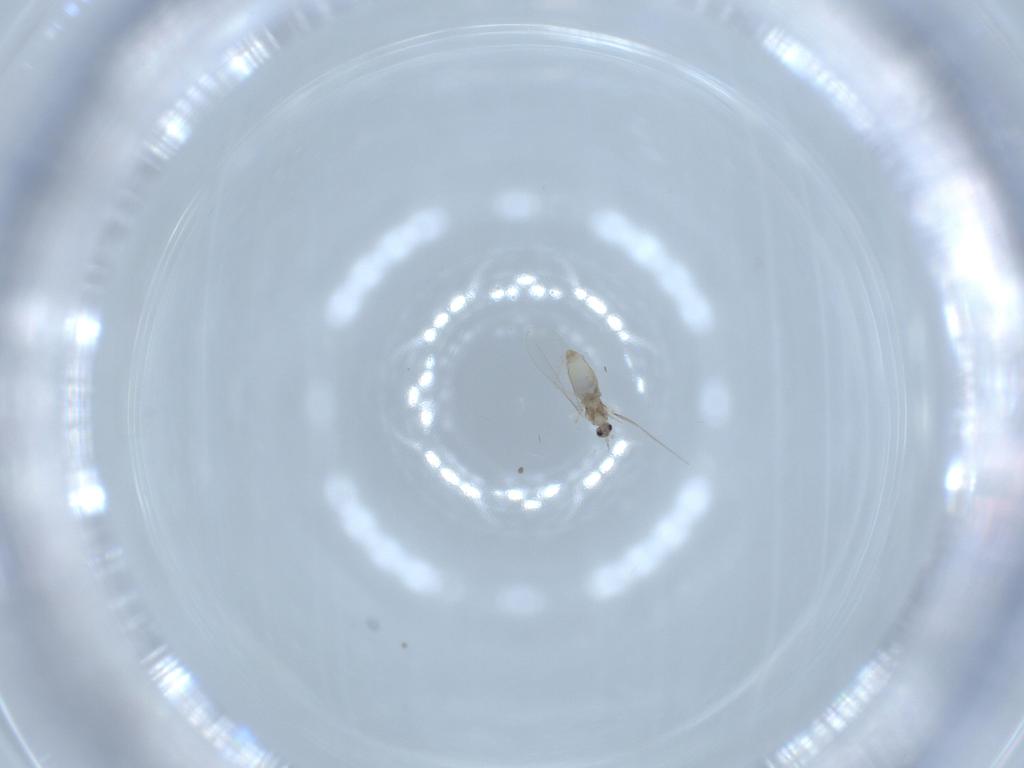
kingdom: Animalia
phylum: Arthropoda
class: Insecta
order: Diptera
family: Cecidomyiidae
